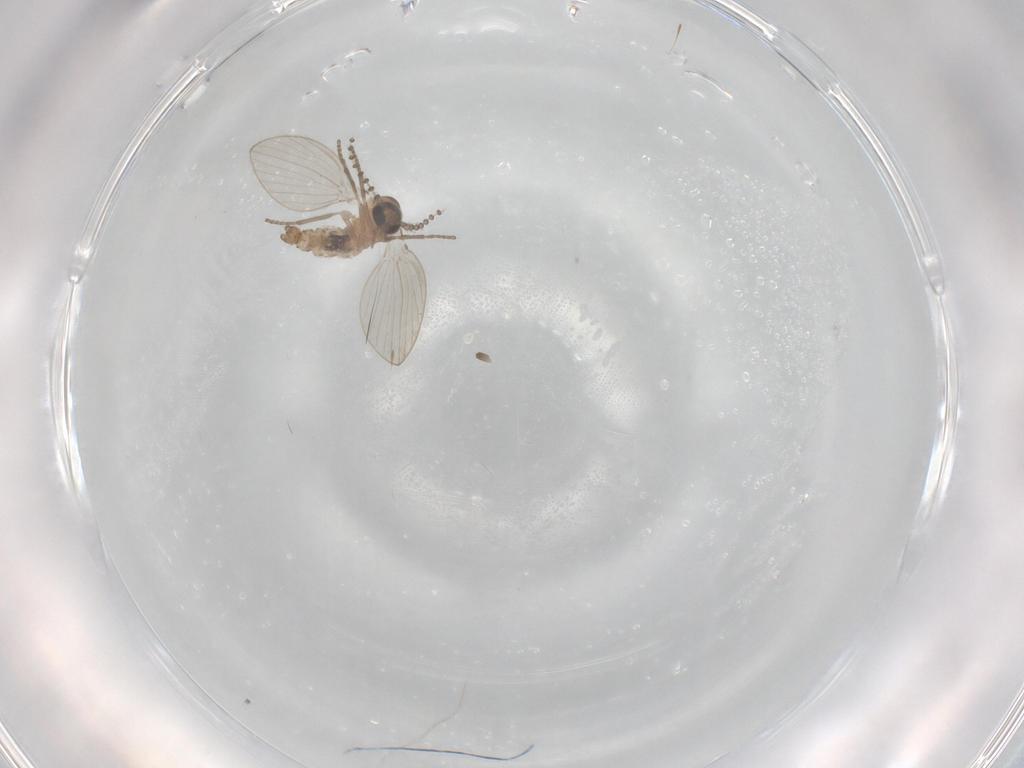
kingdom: Animalia
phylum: Arthropoda
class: Insecta
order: Diptera
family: Psychodidae
